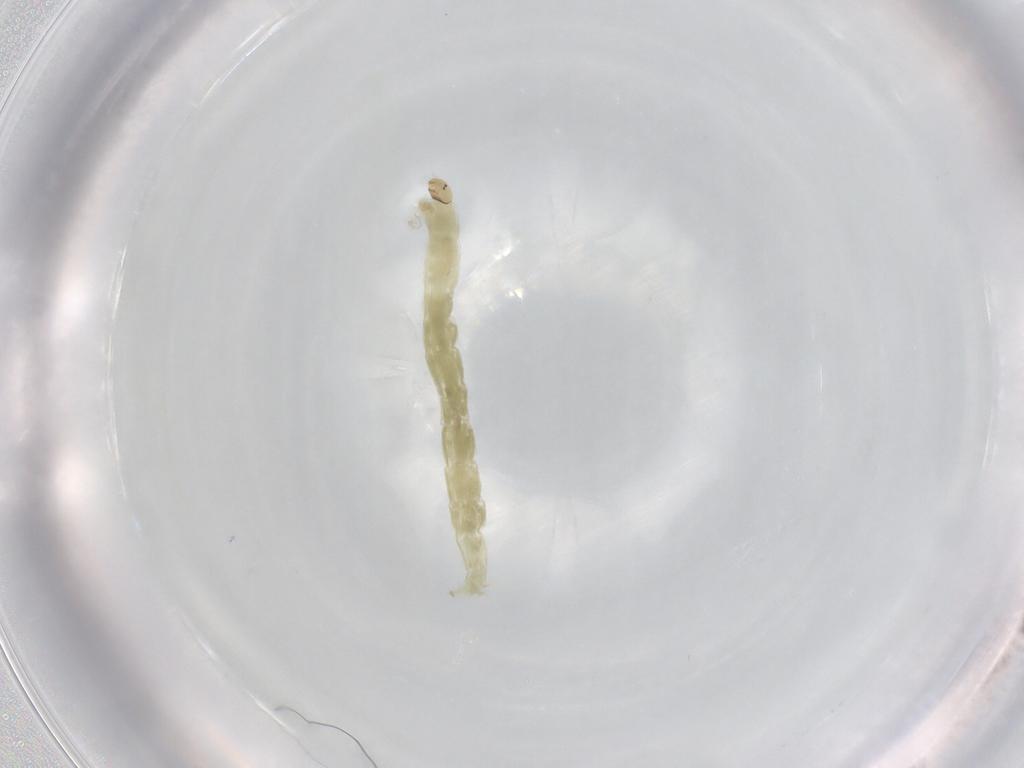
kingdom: Animalia
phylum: Arthropoda
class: Insecta
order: Diptera
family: Chironomidae
